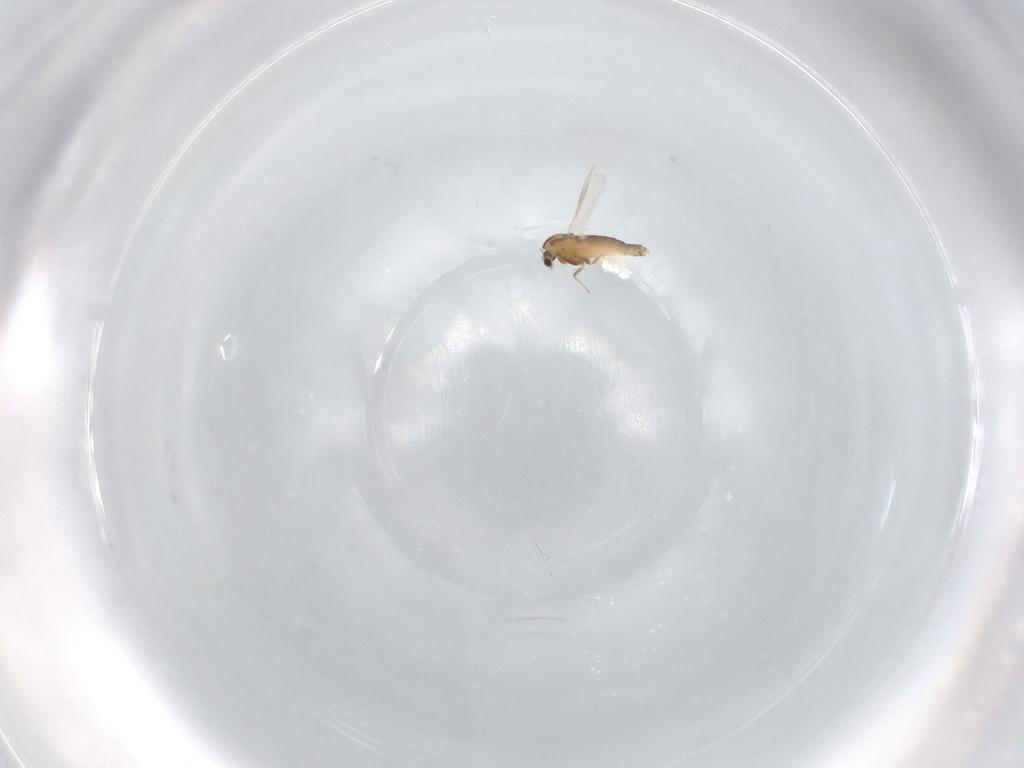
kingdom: Animalia
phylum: Arthropoda
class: Insecta
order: Diptera
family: Chironomidae
